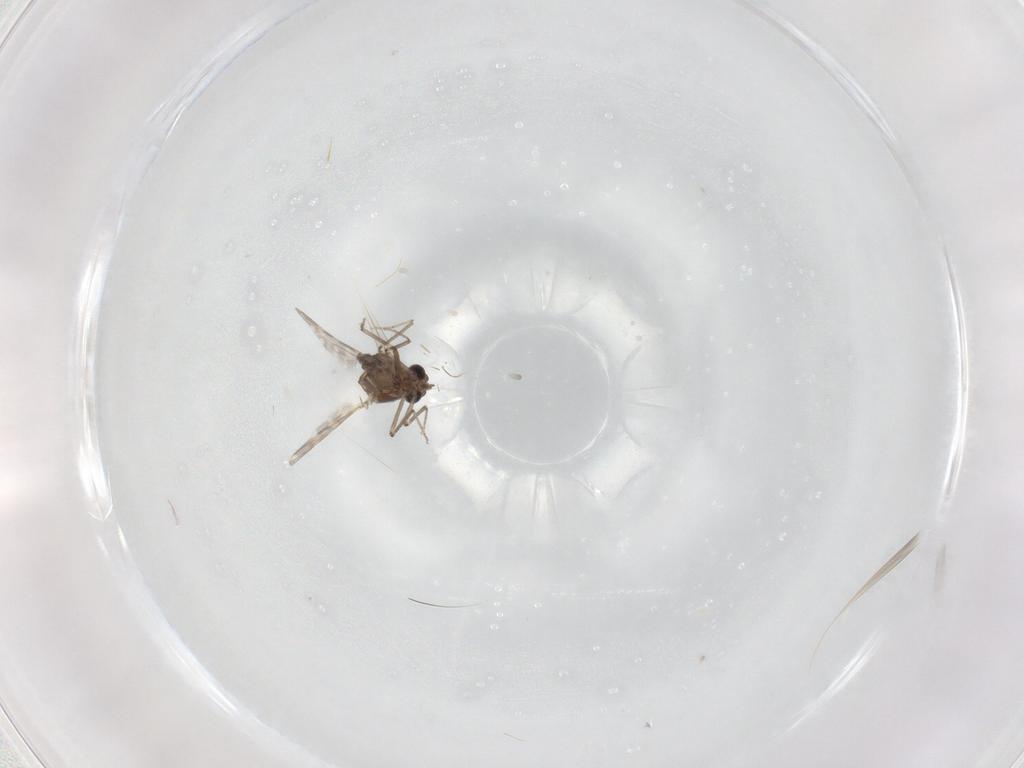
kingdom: Animalia
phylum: Arthropoda
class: Insecta
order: Diptera
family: Ceratopogonidae
